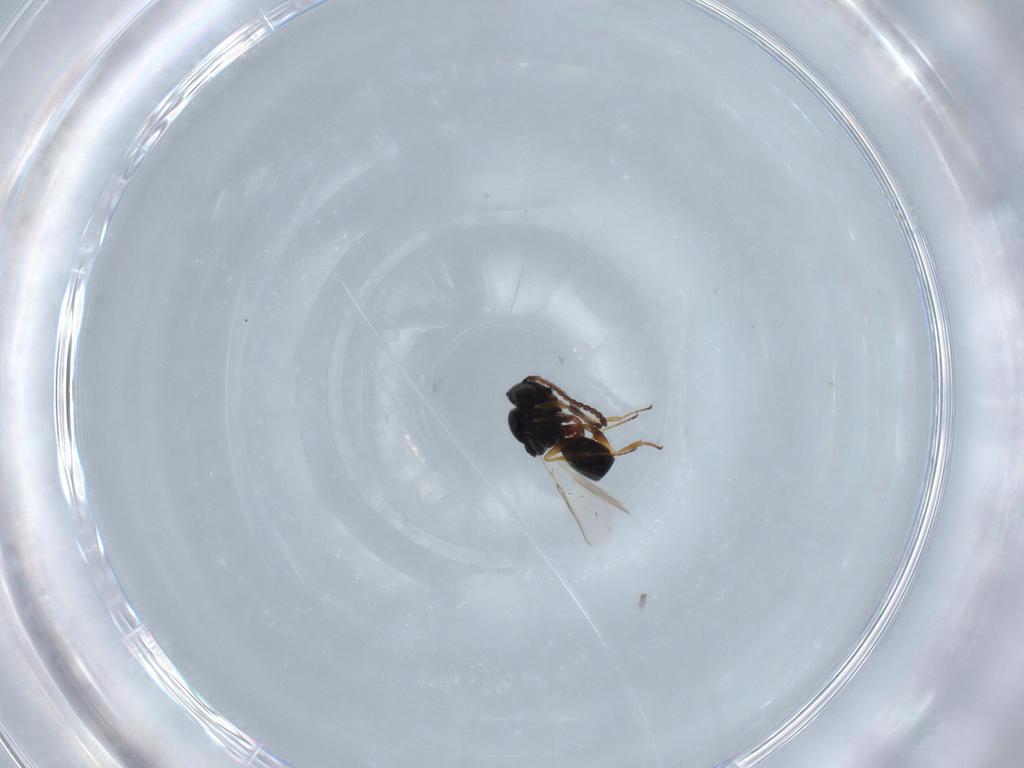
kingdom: Animalia
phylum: Arthropoda
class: Insecta
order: Hymenoptera
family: Figitidae
